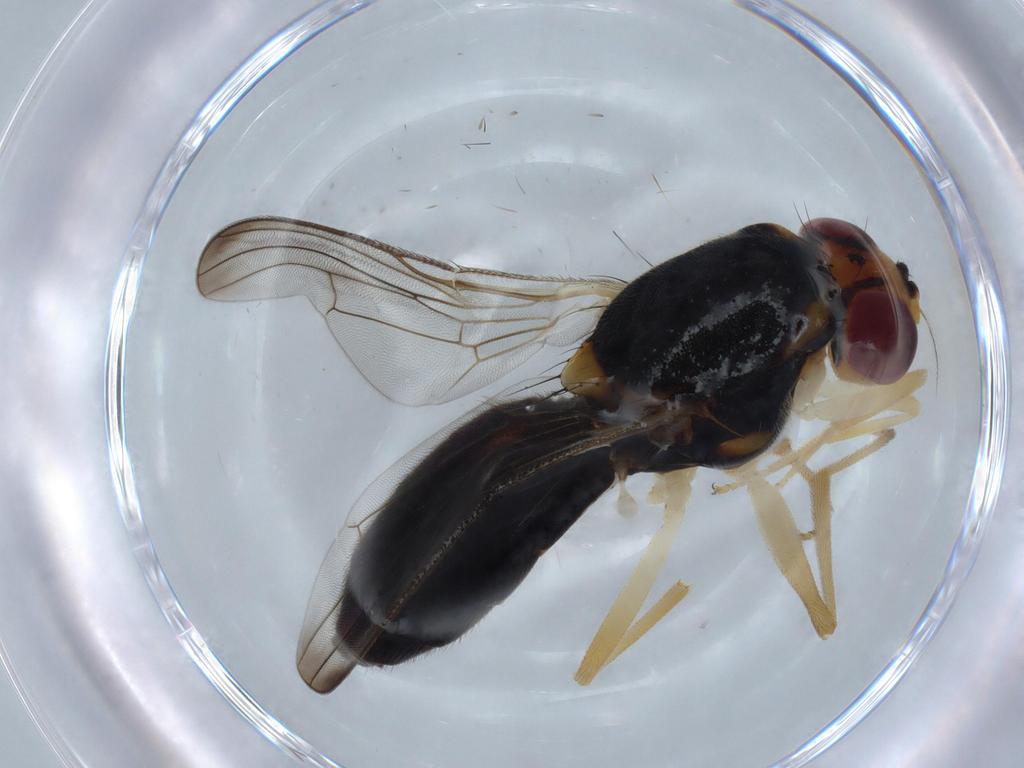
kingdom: Animalia
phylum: Arthropoda
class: Insecta
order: Diptera
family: Psilidae
